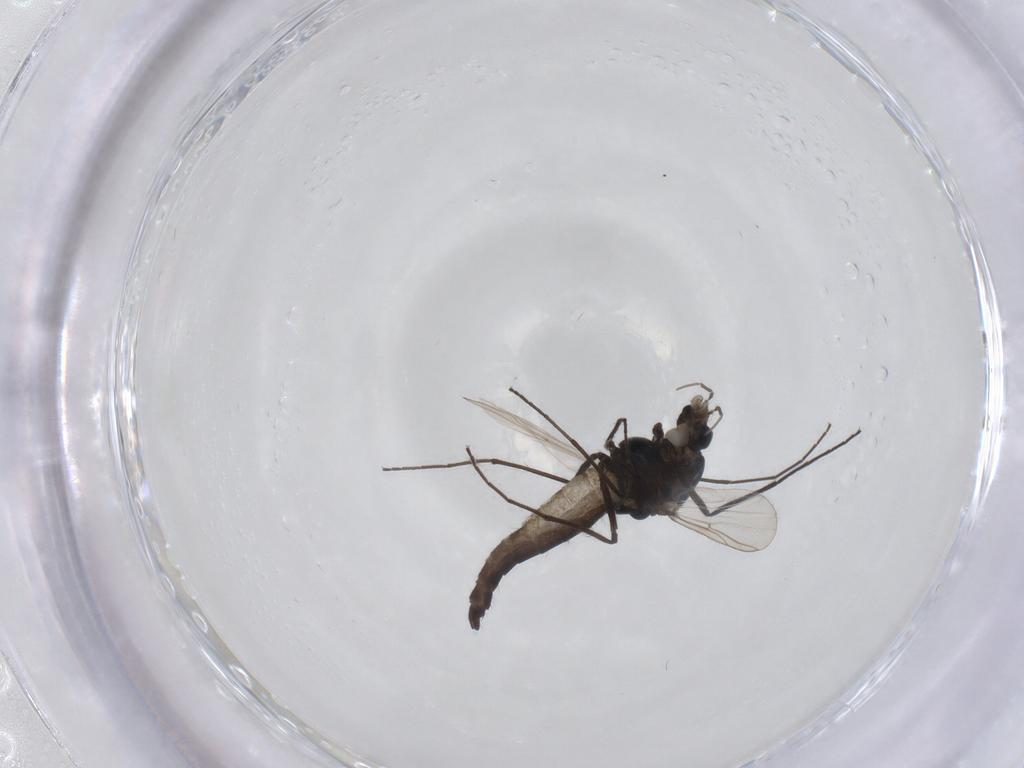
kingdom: Animalia
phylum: Arthropoda
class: Insecta
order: Diptera
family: Chironomidae
